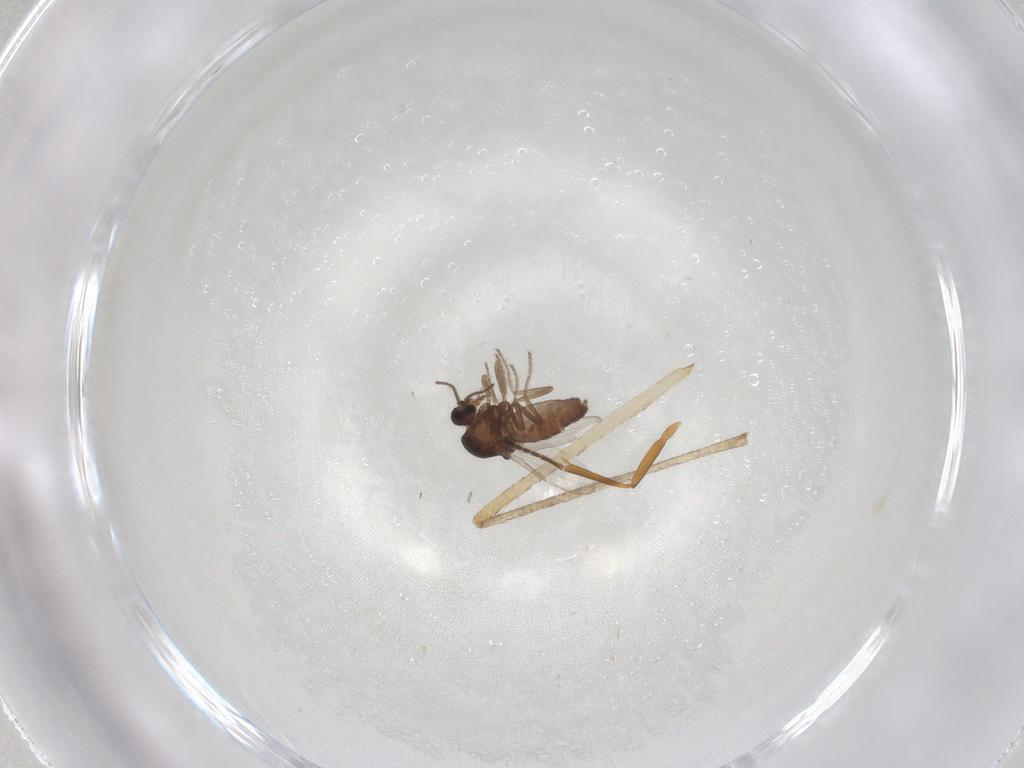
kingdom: Animalia
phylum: Arthropoda
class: Insecta
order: Diptera
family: Ceratopogonidae
